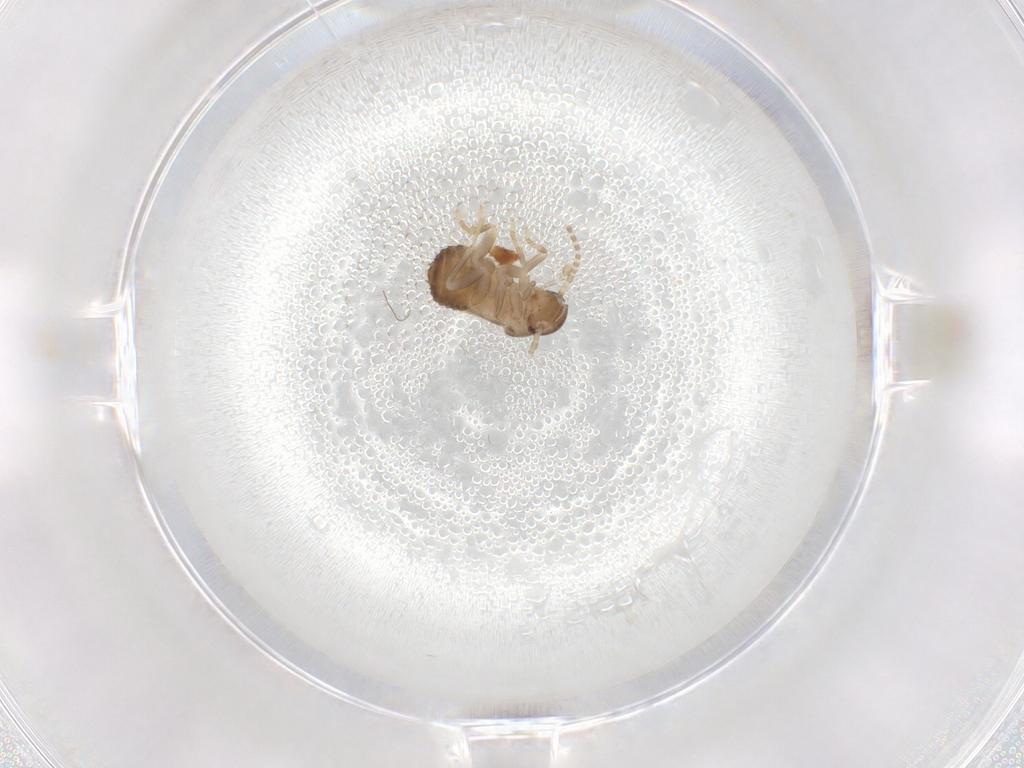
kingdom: Animalia
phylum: Arthropoda
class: Insecta
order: Blattodea
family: Ectobiidae
